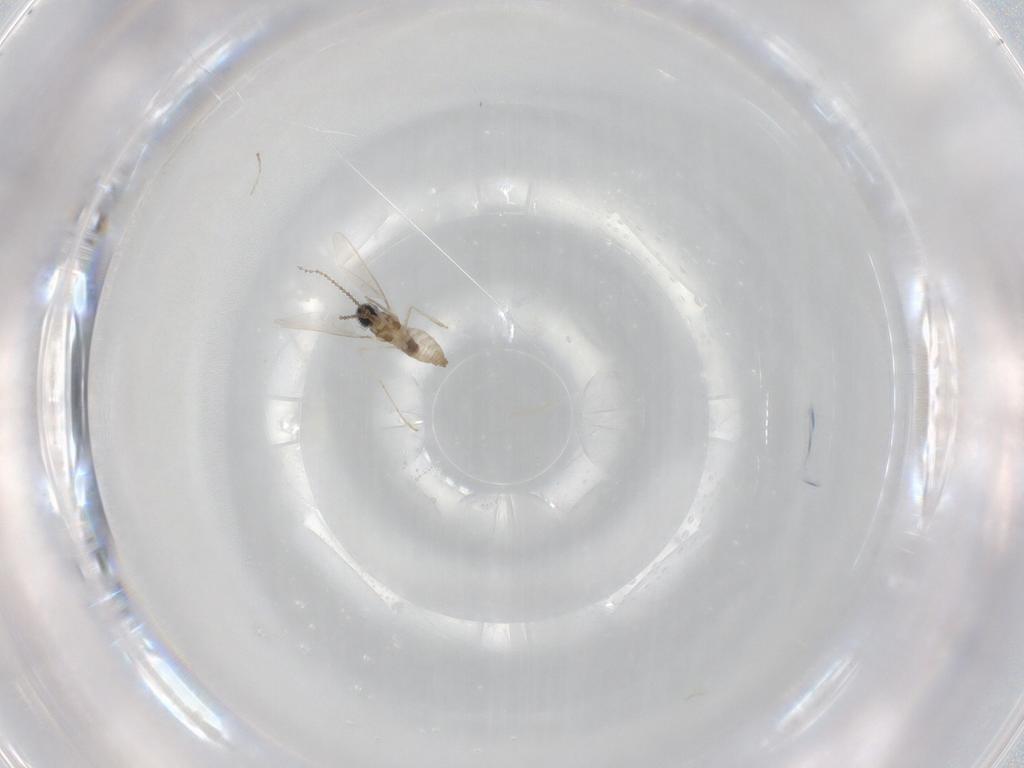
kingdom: Animalia
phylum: Arthropoda
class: Insecta
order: Diptera
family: Cecidomyiidae
